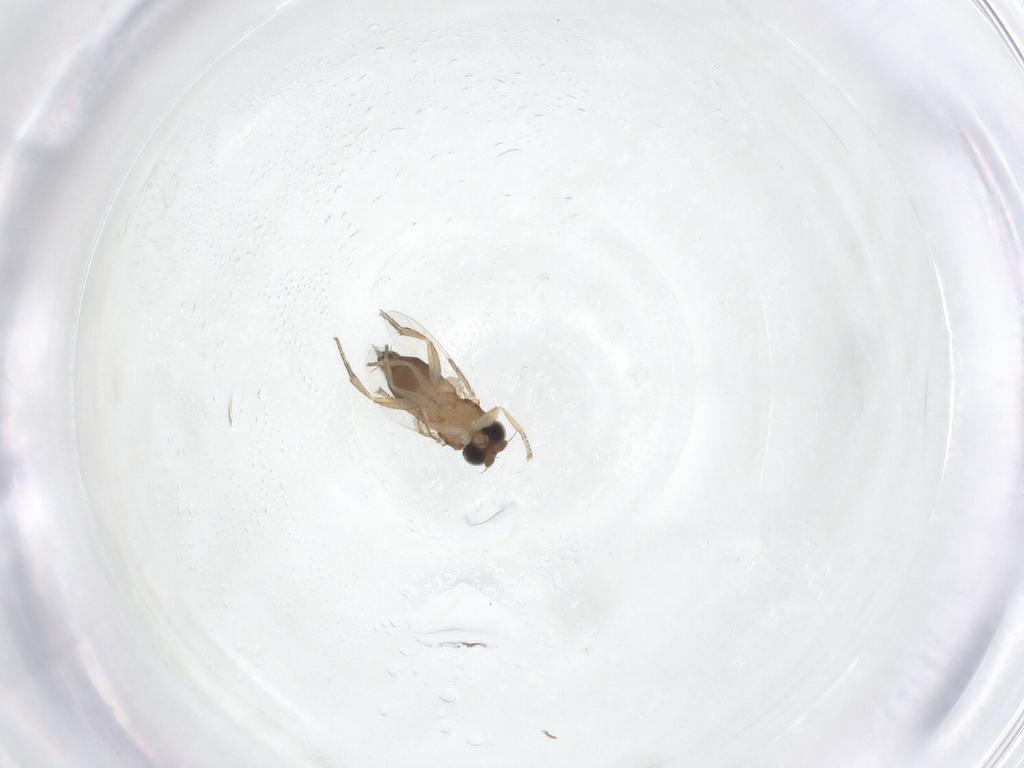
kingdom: Animalia
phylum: Arthropoda
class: Insecta
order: Diptera
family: Phoridae
